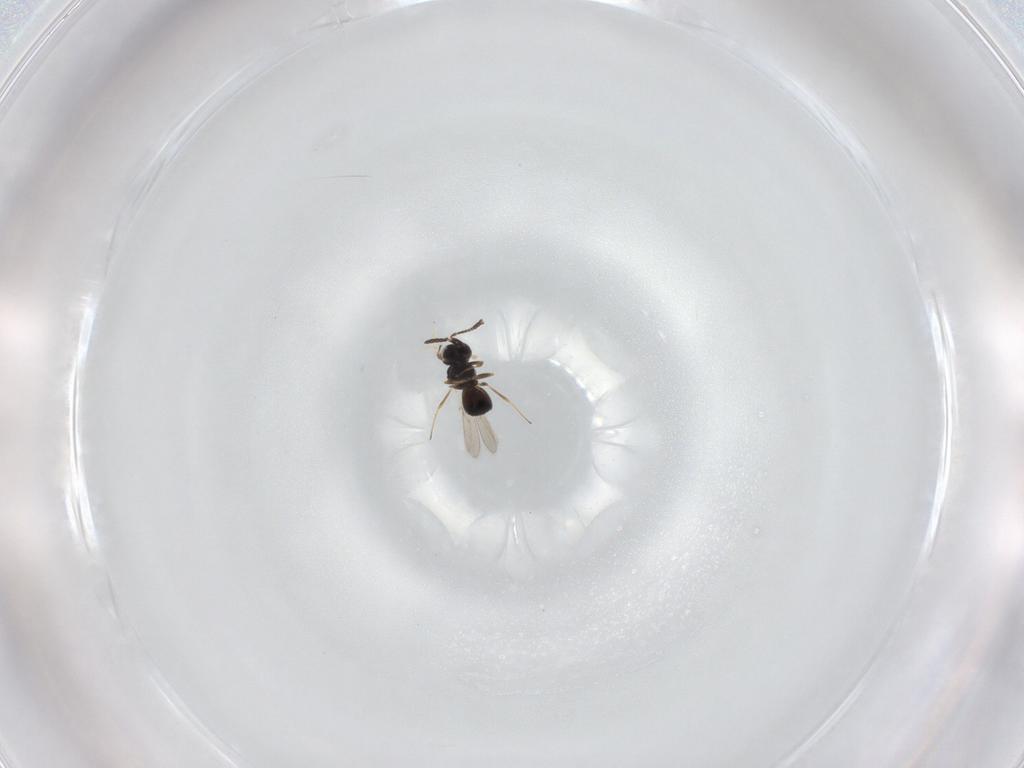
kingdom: Animalia
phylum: Arthropoda
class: Insecta
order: Hymenoptera
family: Scelionidae
